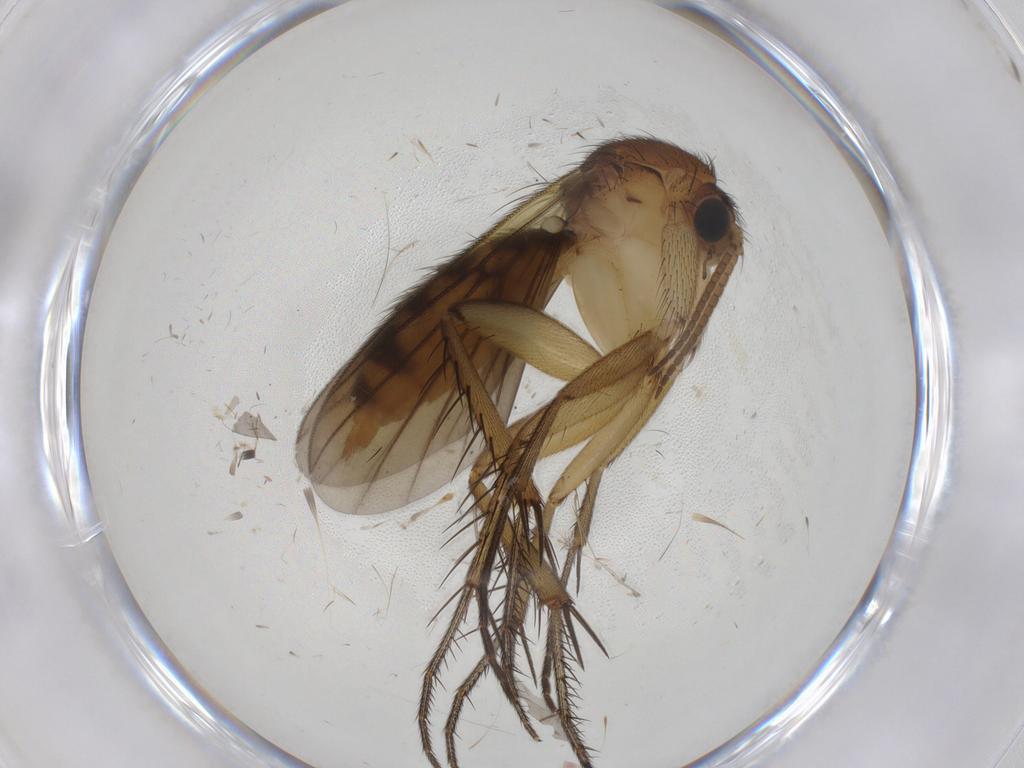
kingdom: Animalia
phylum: Arthropoda
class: Insecta
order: Diptera
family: Mycetophilidae
